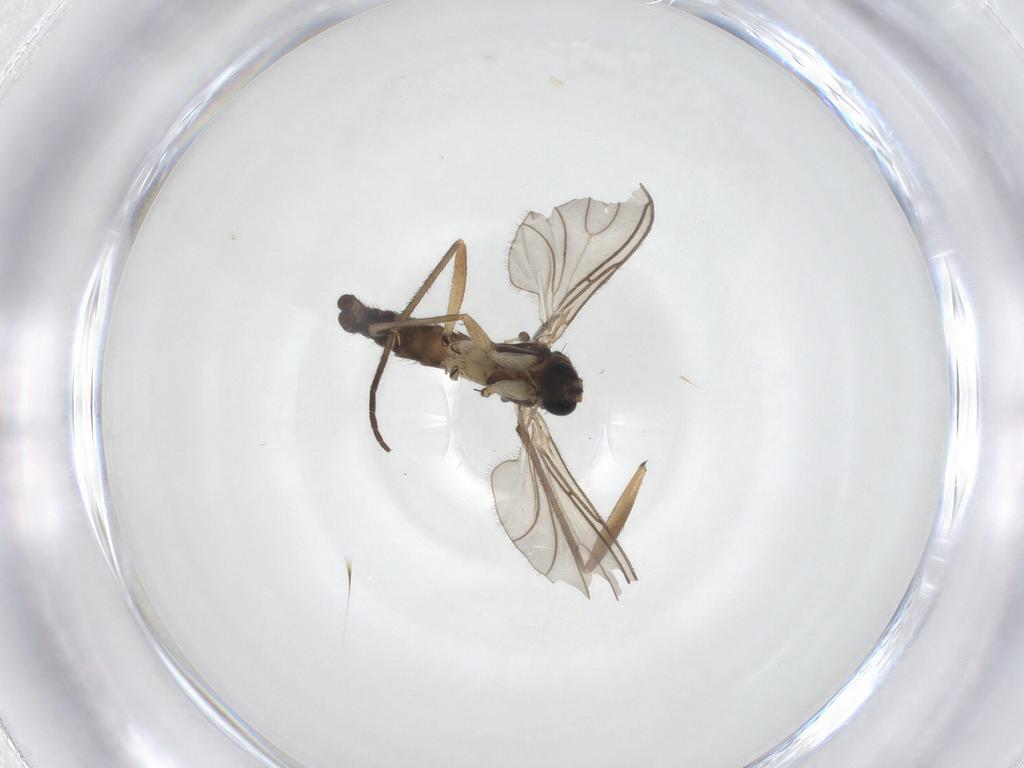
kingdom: Animalia
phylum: Arthropoda
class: Insecta
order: Diptera
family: Sciaridae
